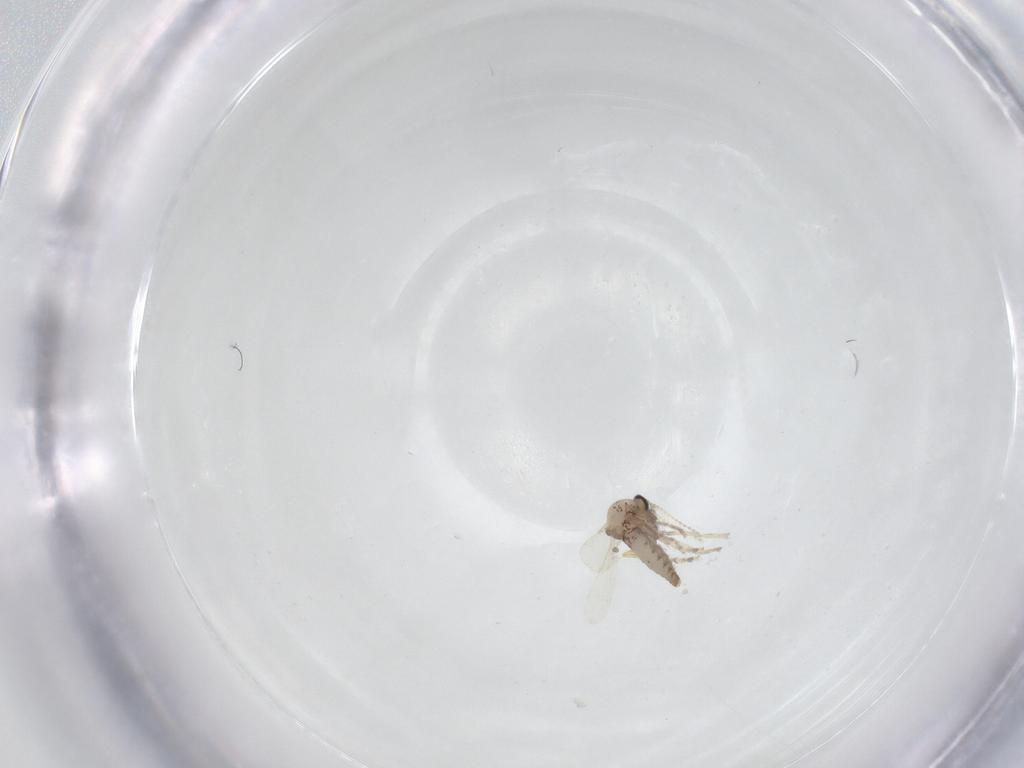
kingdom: Animalia
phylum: Arthropoda
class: Insecta
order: Diptera
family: Ceratopogonidae
